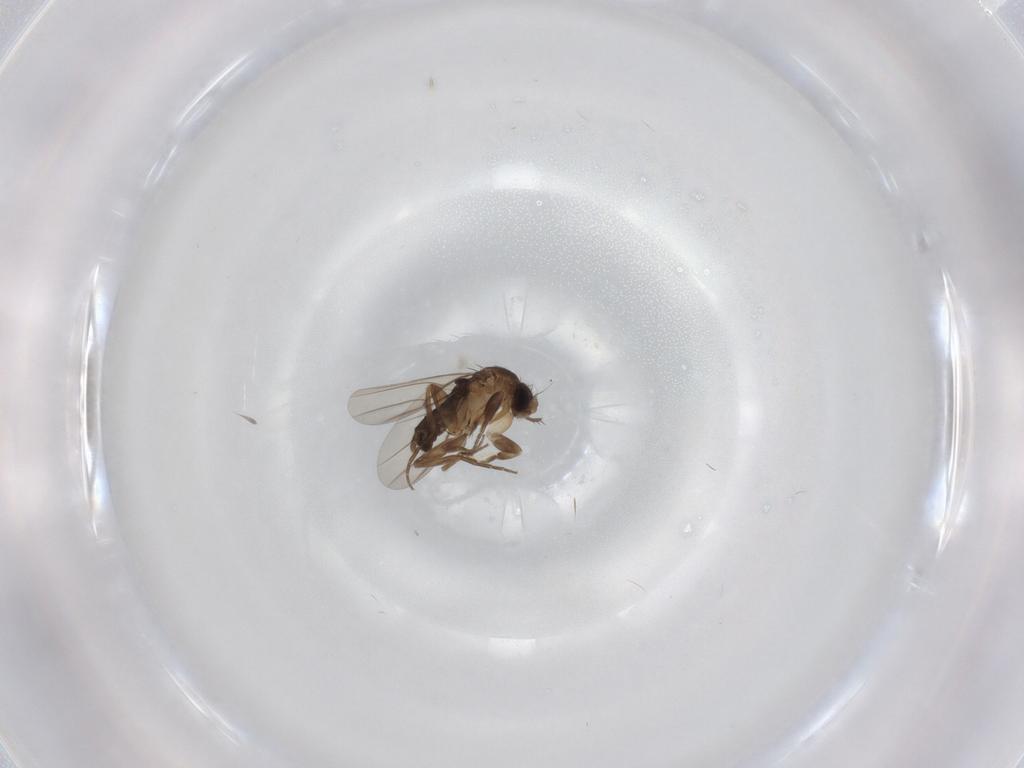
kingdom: Animalia
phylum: Arthropoda
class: Insecta
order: Diptera
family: Phoridae
